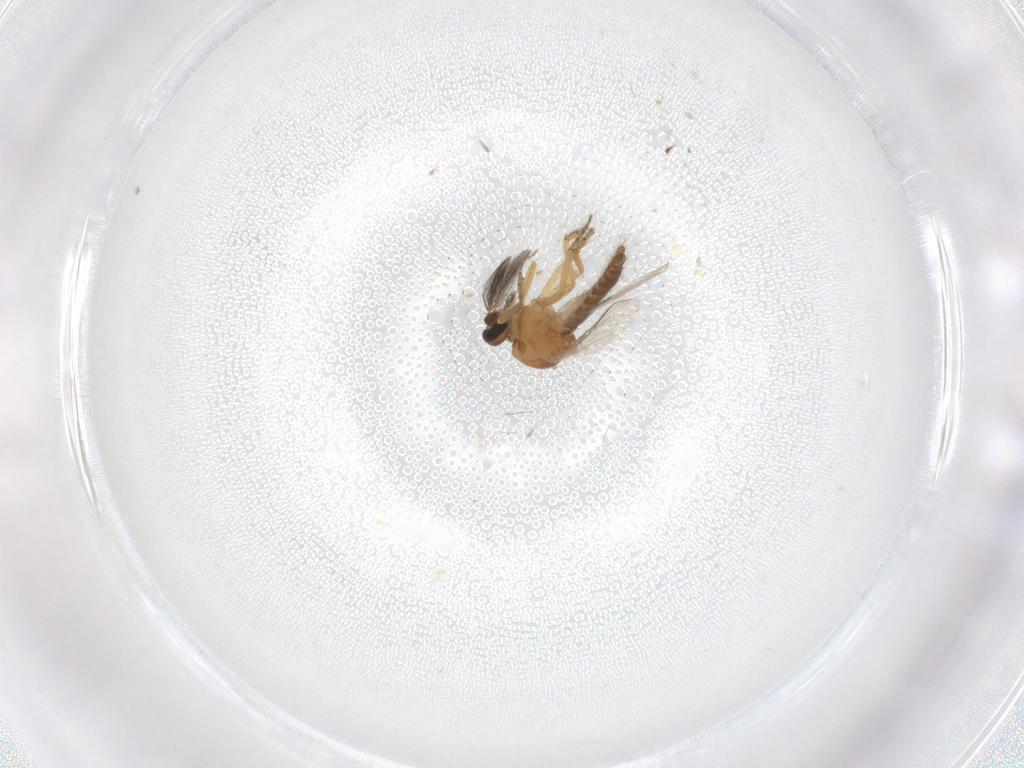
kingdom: Animalia
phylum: Arthropoda
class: Insecta
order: Diptera
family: Ceratopogonidae
